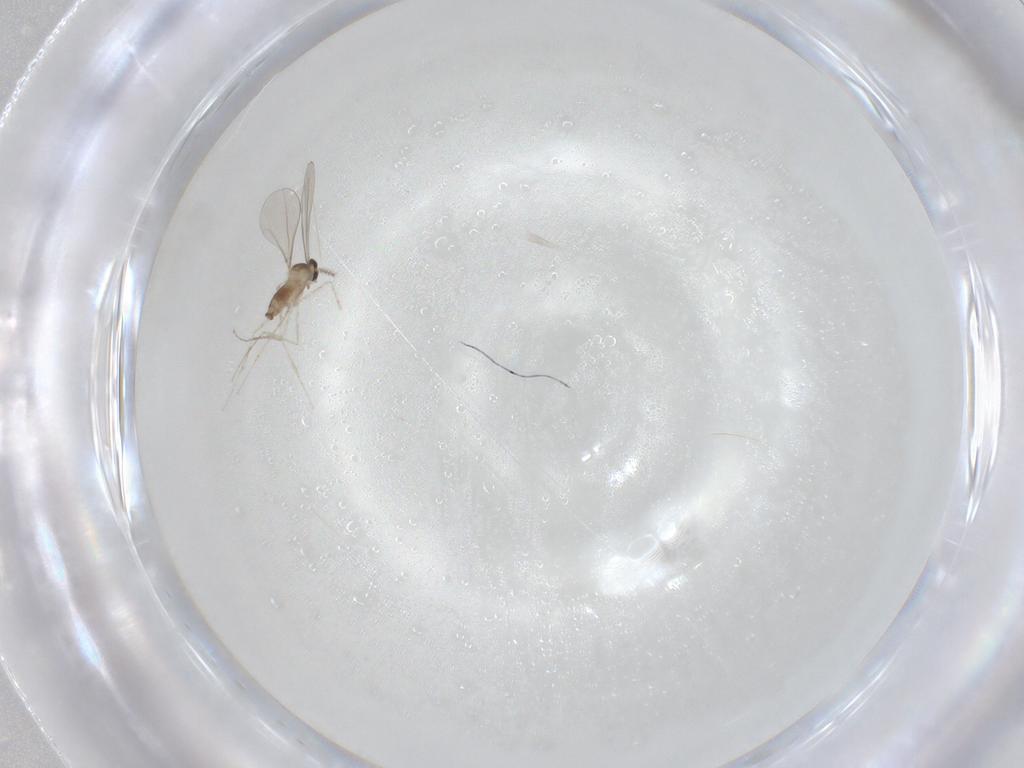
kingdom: Animalia
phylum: Arthropoda
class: Insecta
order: Diptera
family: Cecidomyiidae
